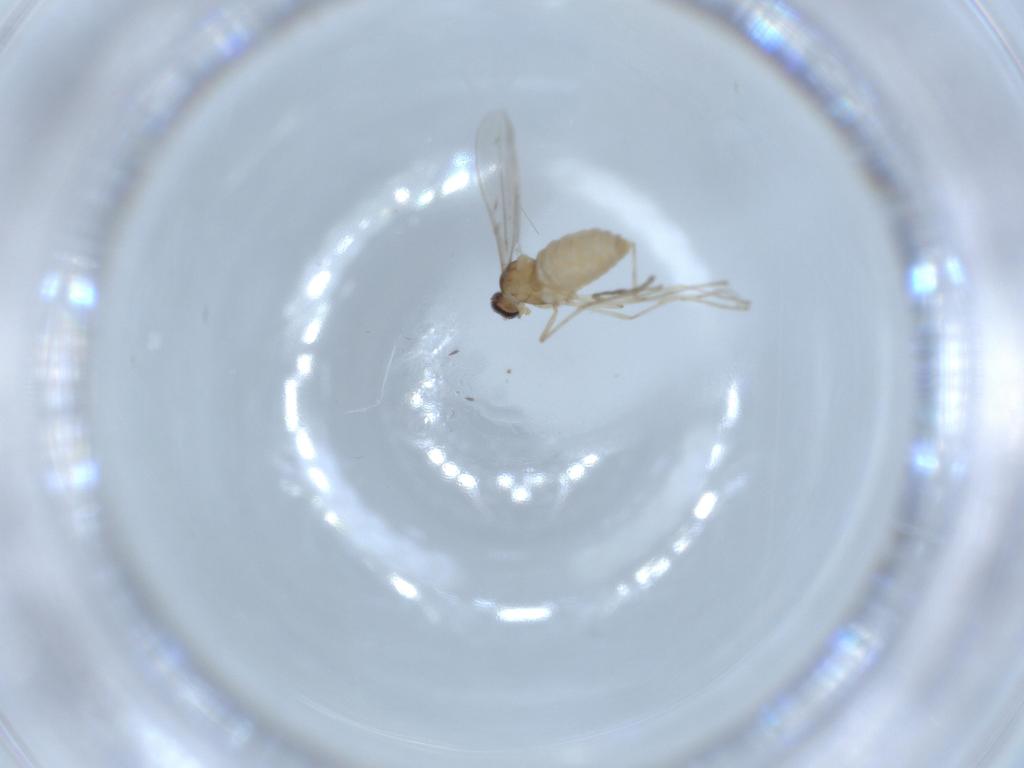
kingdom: Animalia
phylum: Arthropoda
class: Insecta
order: Diptera
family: Cecidomyiidae
